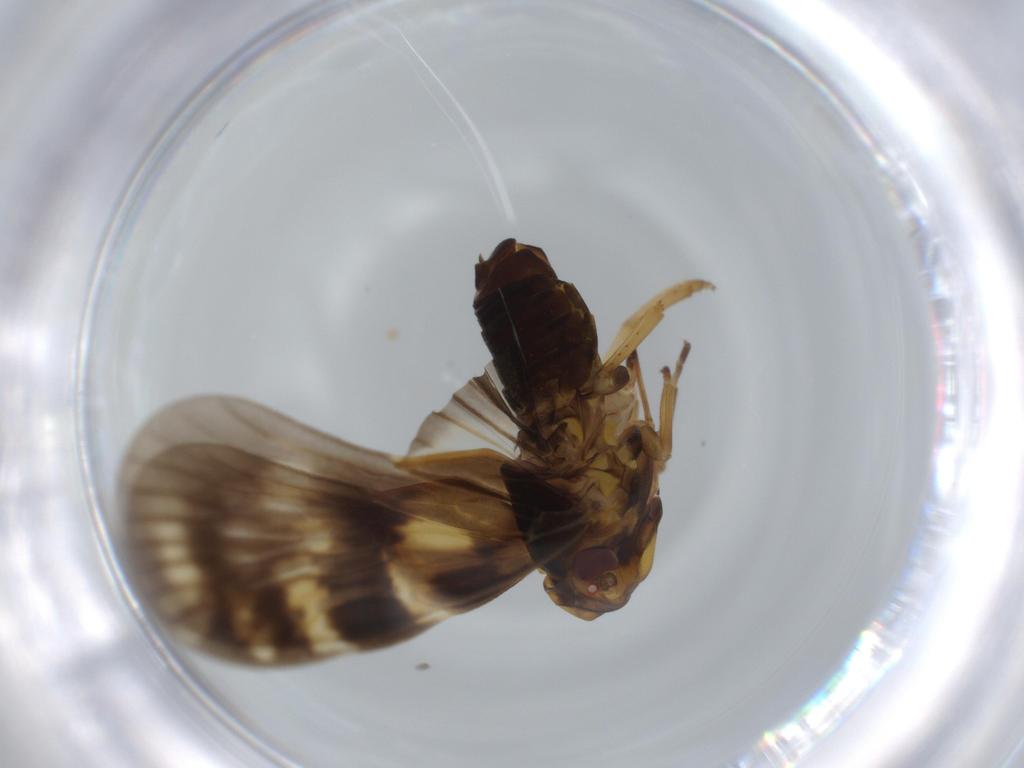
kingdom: Animalia
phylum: Arthropoda
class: Insecta
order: Hemiptera
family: Cixiidae
